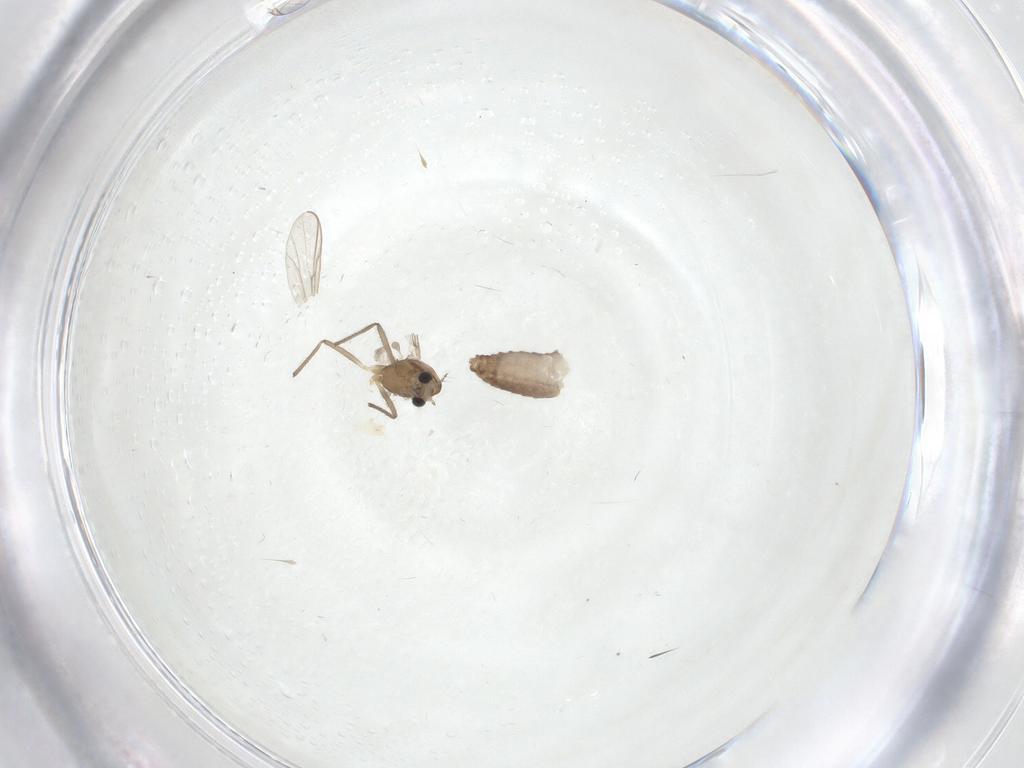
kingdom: Animalia
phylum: Arthropoda
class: Insecta
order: Diptera
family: Chironomidae
